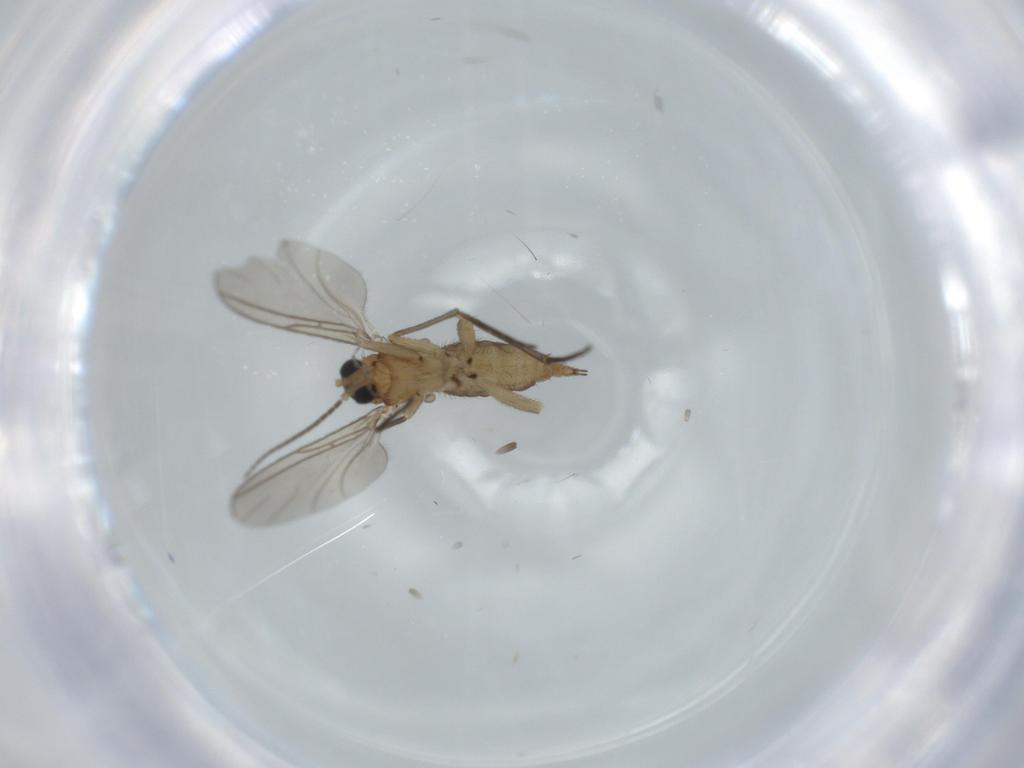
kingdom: Animalia
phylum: Arthropoda
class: Insecta
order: Diptera
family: Sciaridae
